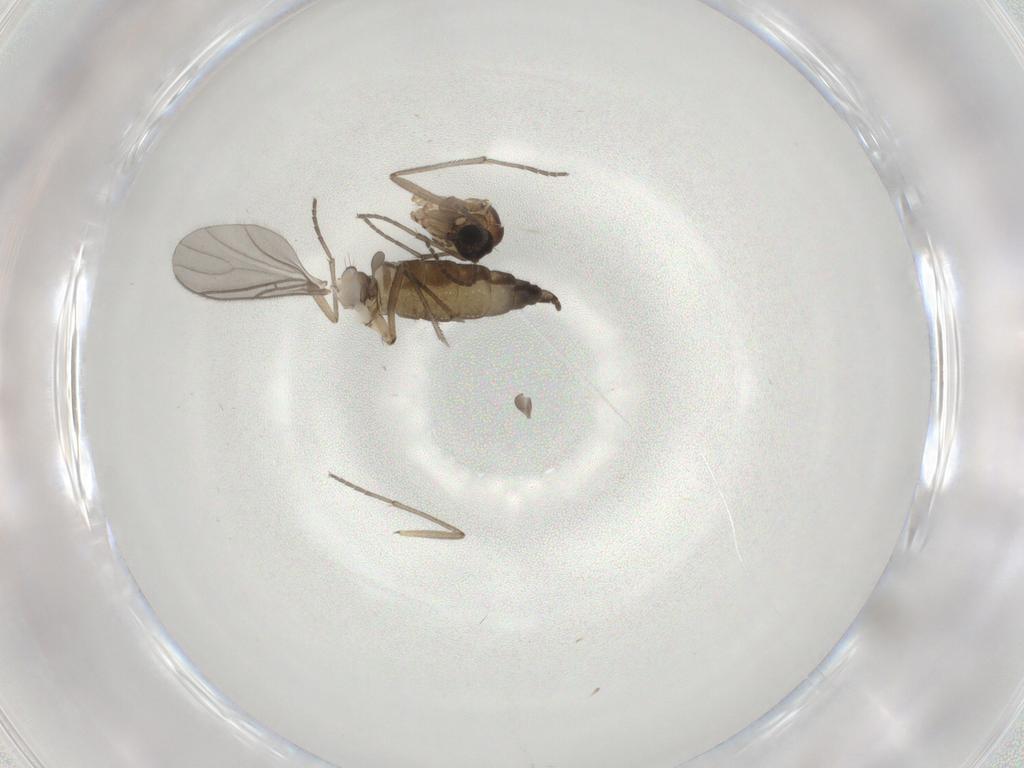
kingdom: Animalia
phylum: Arthropoda
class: Insecta
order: Diptera
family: Sciaridae
